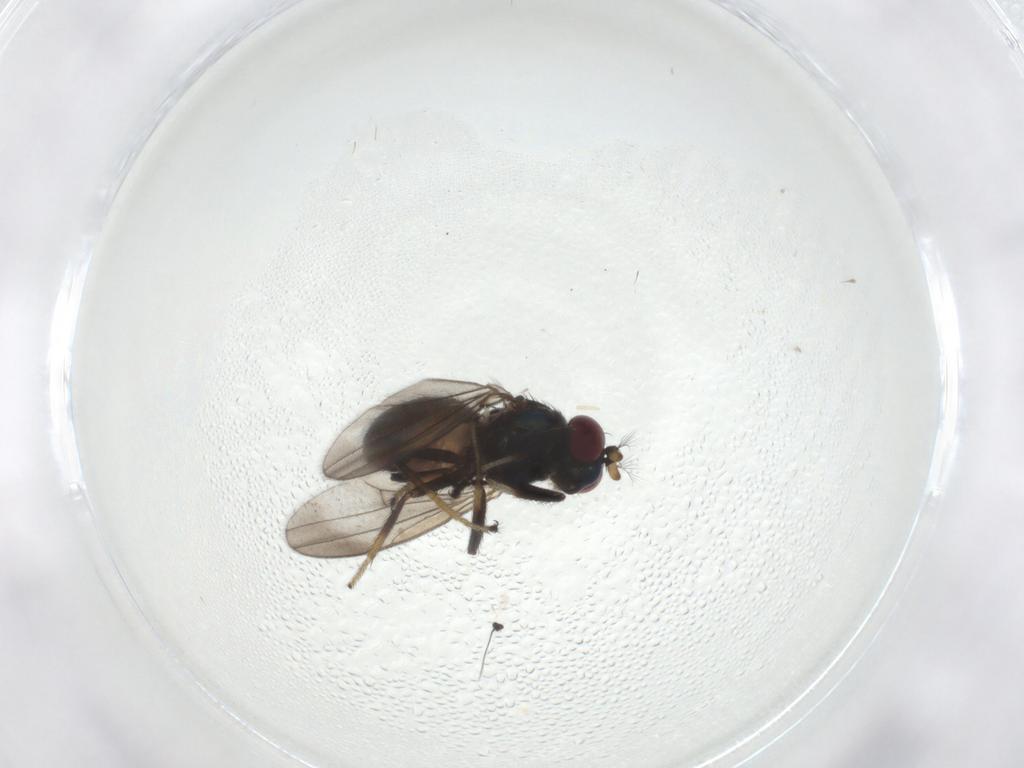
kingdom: Animalia
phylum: Arthropoda
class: Insecta
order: Diptera
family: Ephydridae
